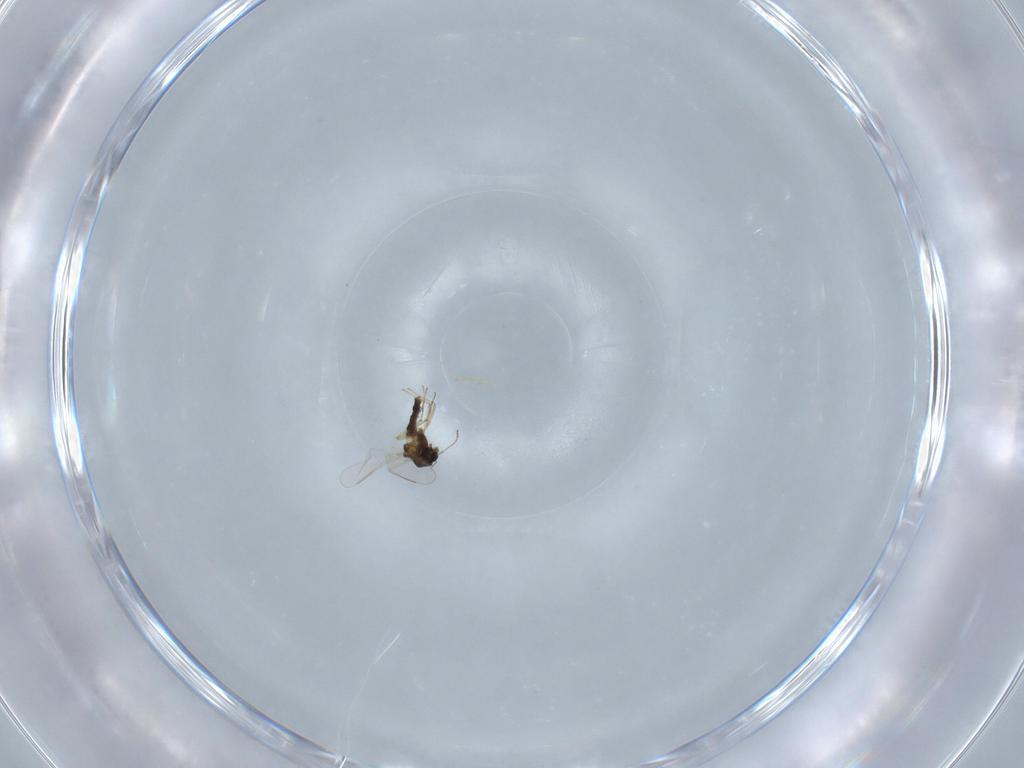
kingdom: Animalia
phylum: Arthropoda
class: Insecta
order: Diptera
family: Chironomidae
